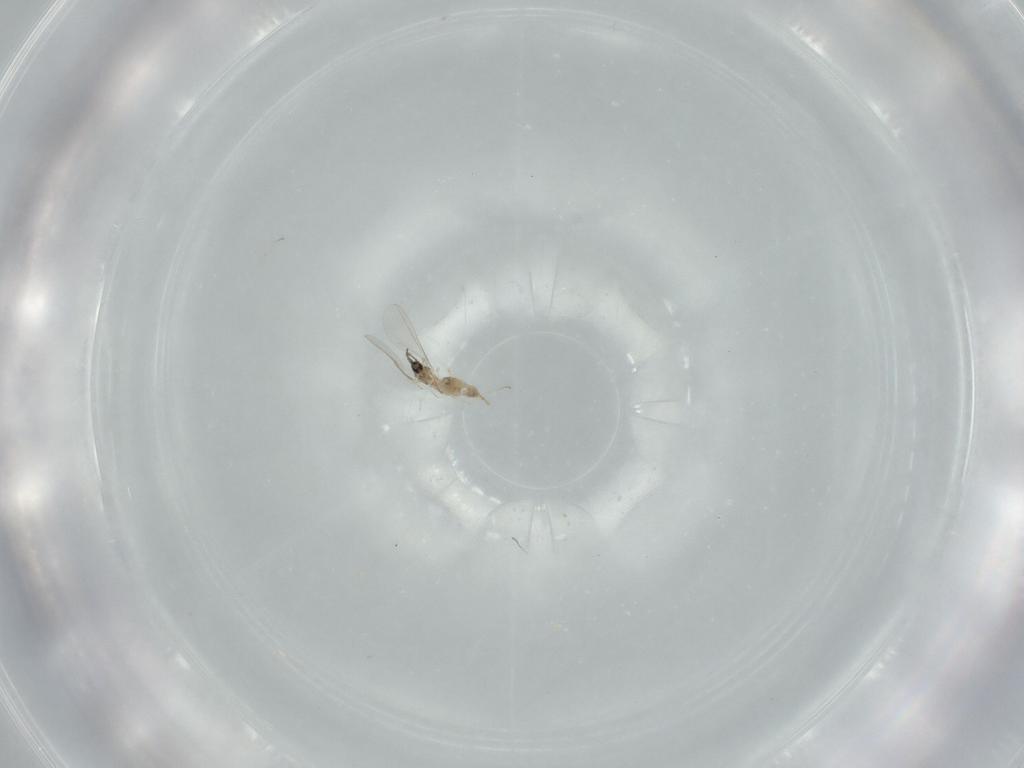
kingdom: Animalia
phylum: Arthropoda
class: Insecta
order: Diptera
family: Cecidomyiidae
